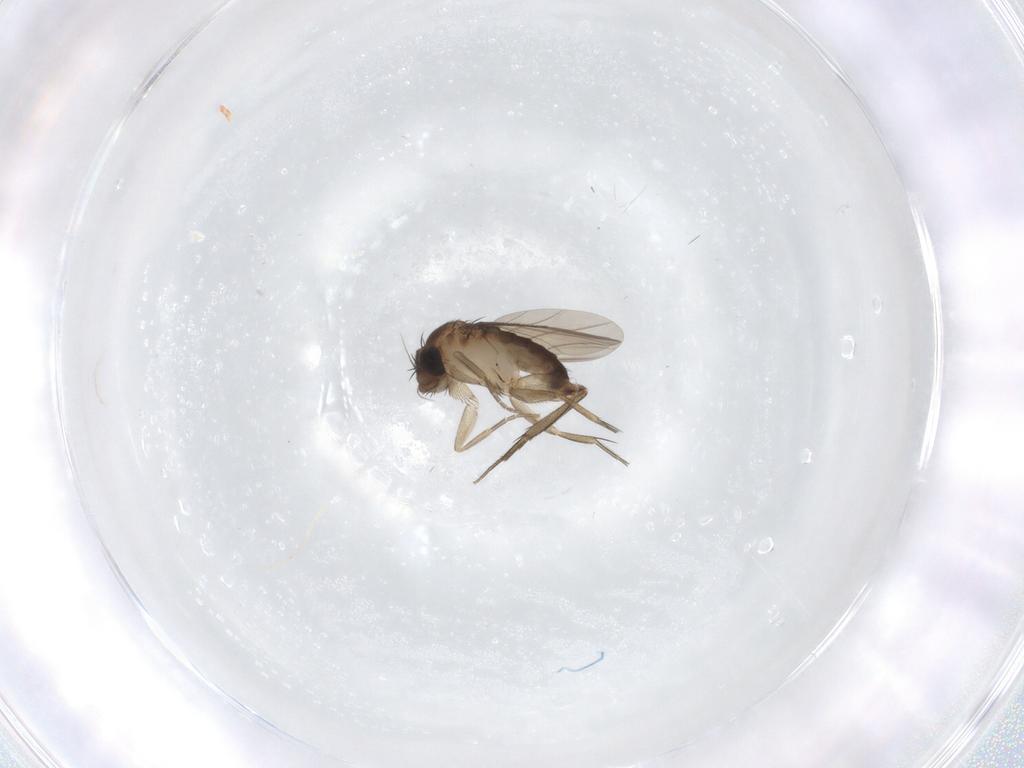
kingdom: Animalia
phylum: Arthropoda
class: Insecta
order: Diptera
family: Phoridae
